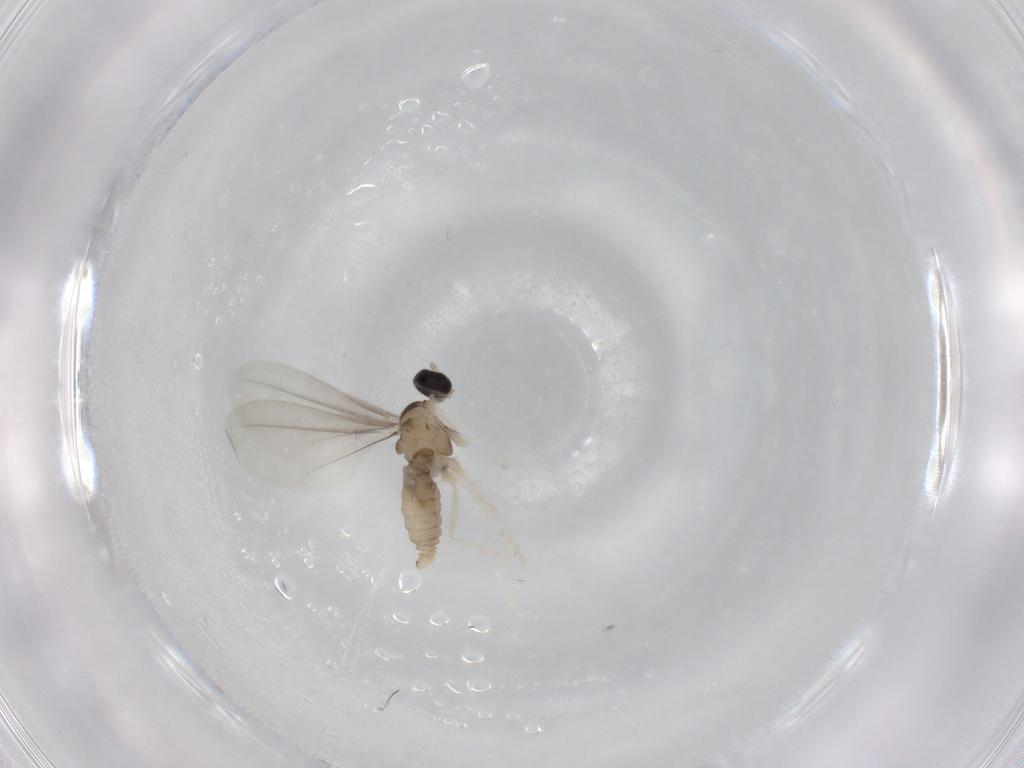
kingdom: Animalia
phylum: Arthropoda
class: Insecta
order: Diptera
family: Cecidomyiidae
